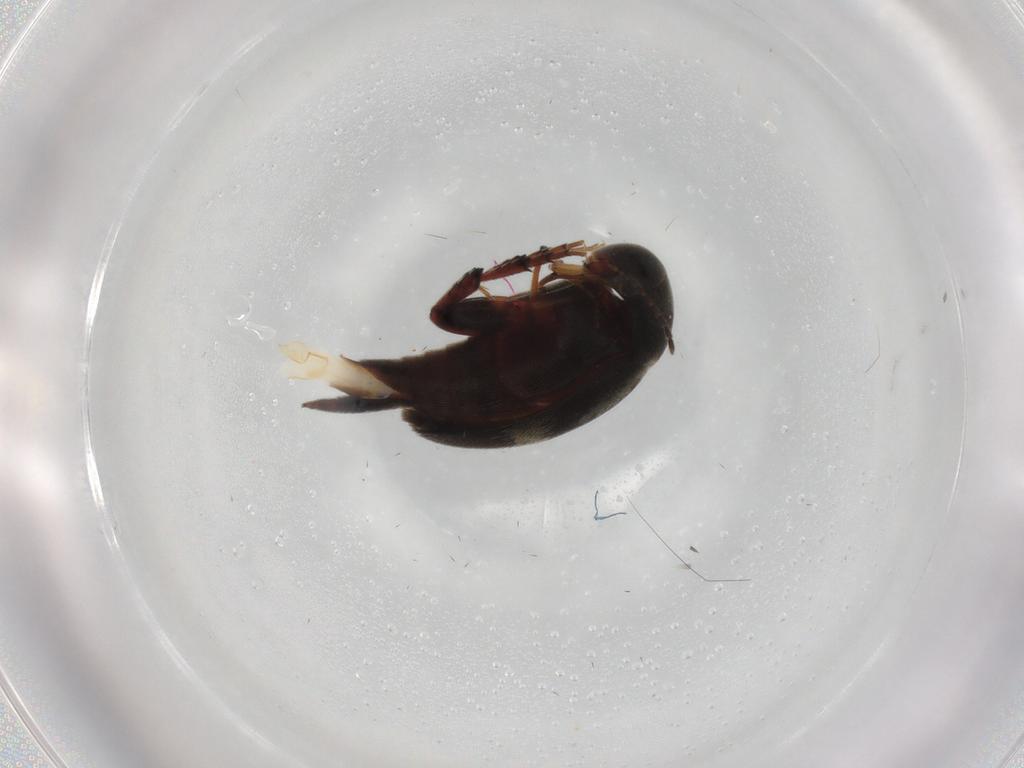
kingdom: Animalia
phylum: Arthropoda
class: Insecta
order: Coleoptera
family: Mordellidae
